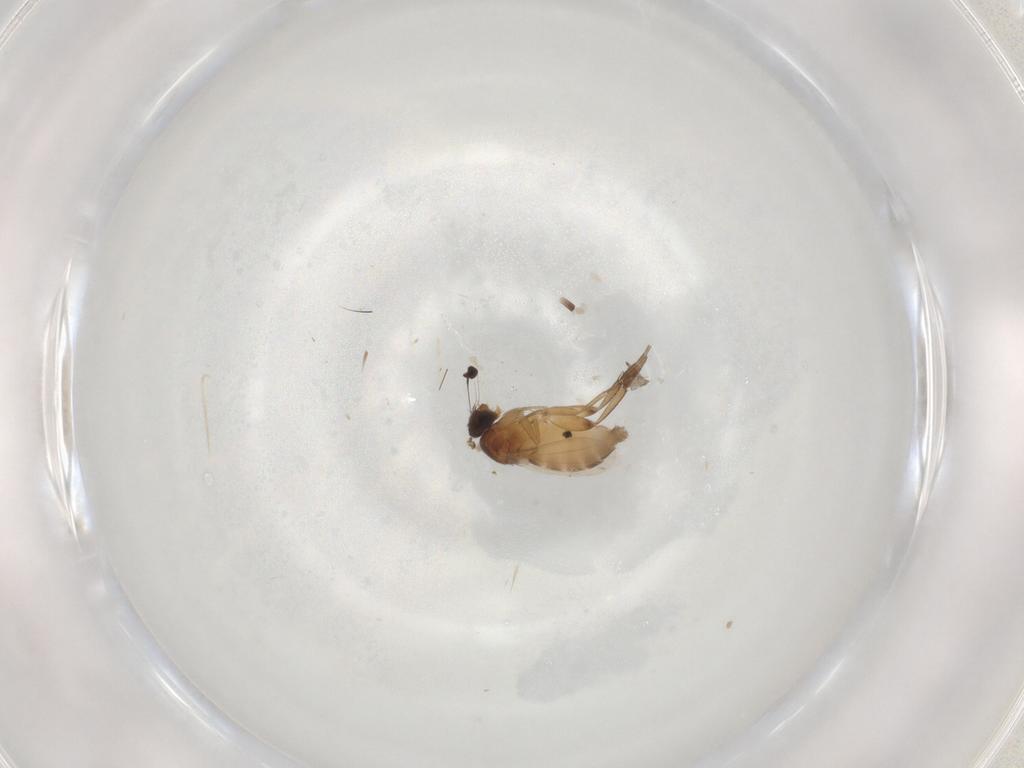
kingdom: Animalia
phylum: Arthropoda
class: Insecta
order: Diptera
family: Phoridae
